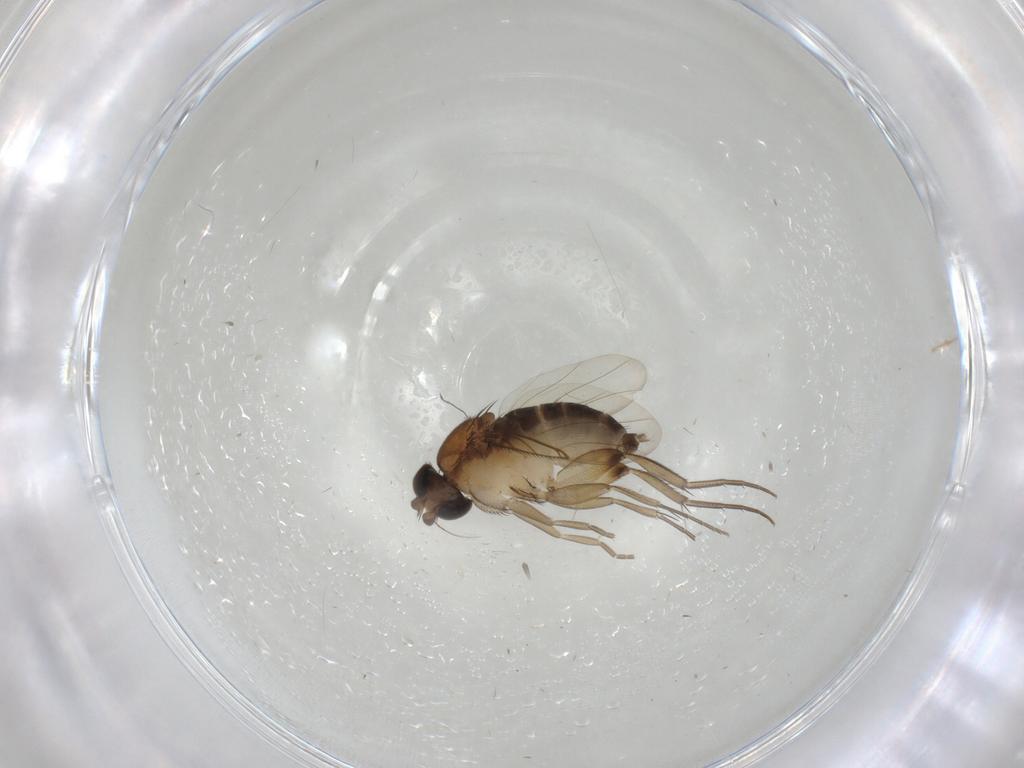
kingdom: Animalia
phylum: Arthropoda
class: Insecta
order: Diptera
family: Phoridae
